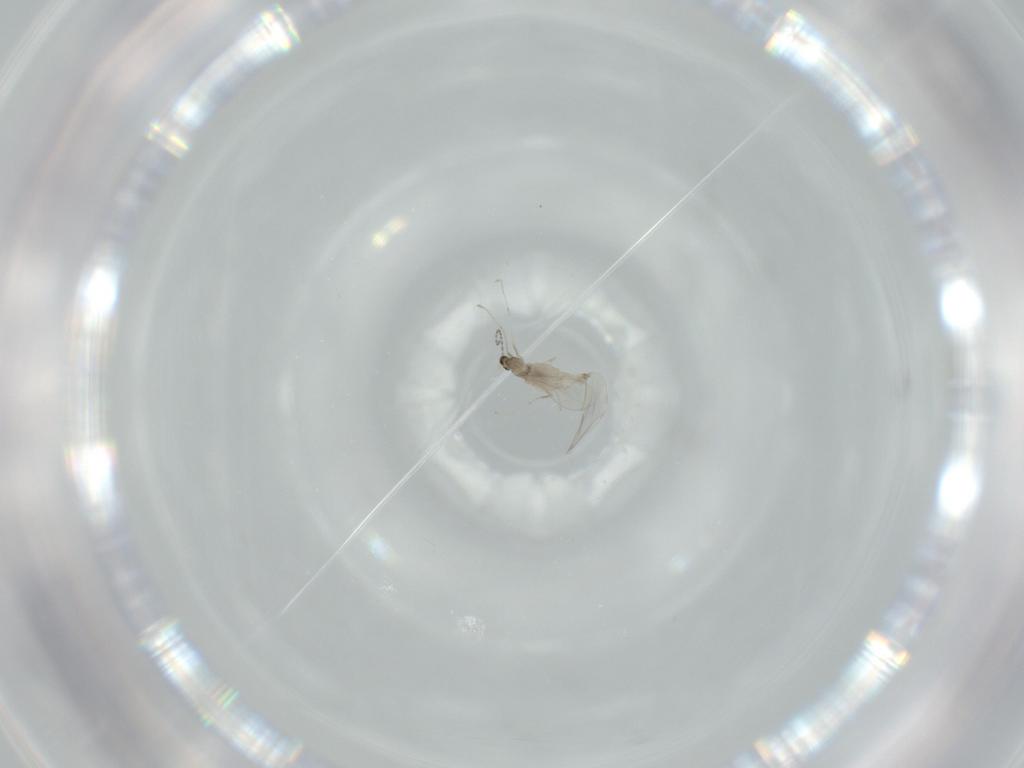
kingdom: Animalia
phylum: Arthropoda
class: Insecta
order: Diptera
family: Cecidomyiidae
